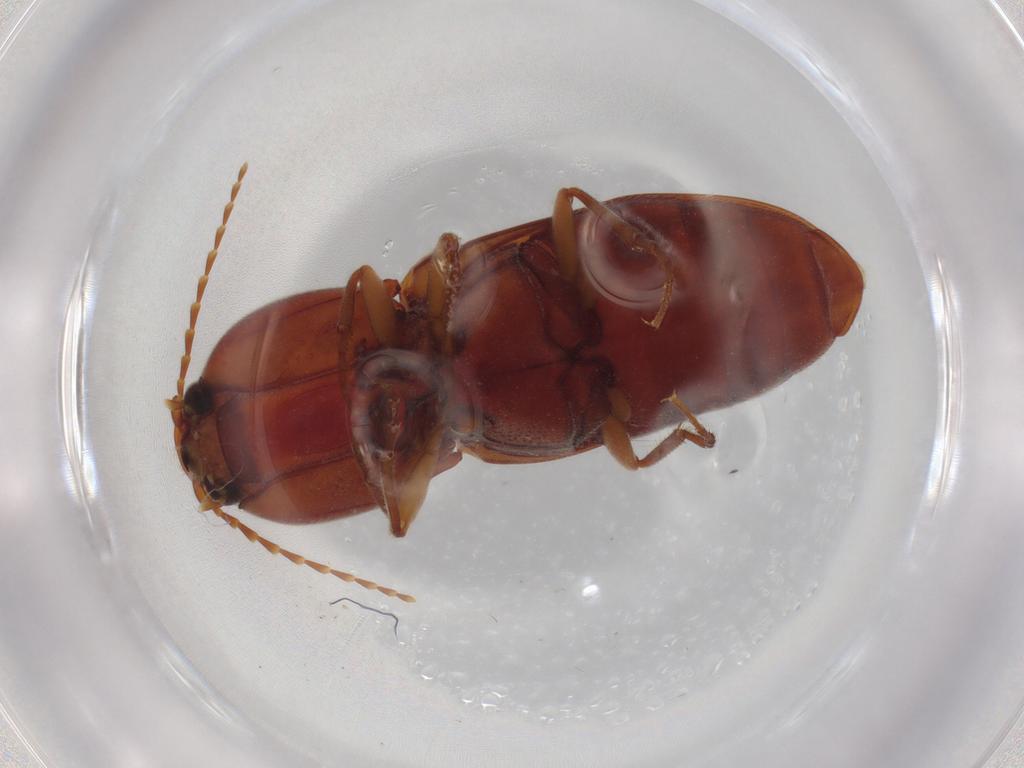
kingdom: Animalia
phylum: Arthropoda
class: Insecta
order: Coleoptera
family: Elateridae
